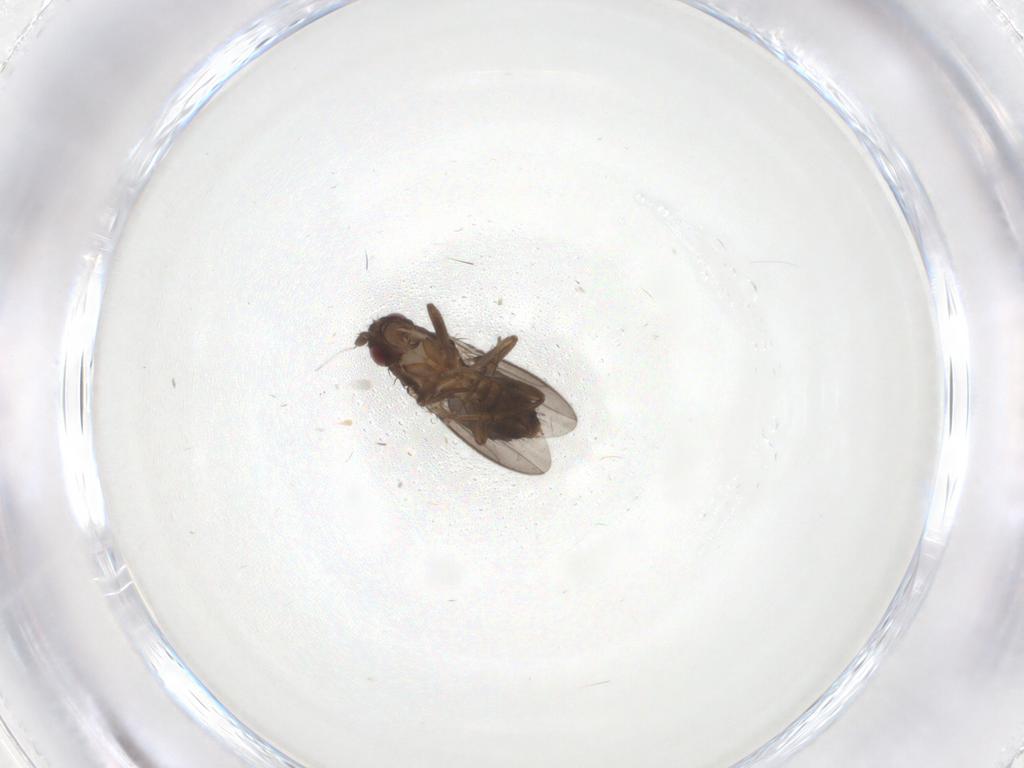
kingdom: Animalia
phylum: Arthropoda
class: Insecta
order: Diptera
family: Sphaeroceridae
